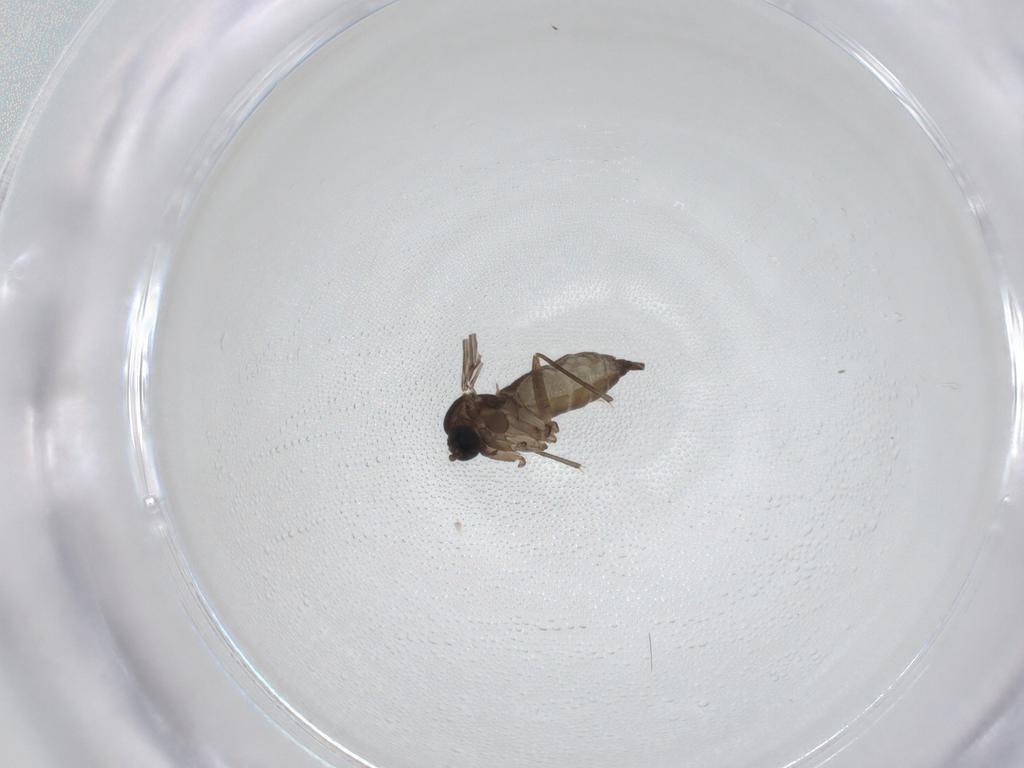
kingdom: Animalia
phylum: Arthropoda
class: Insecta
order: Diptera
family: Sciaridae
